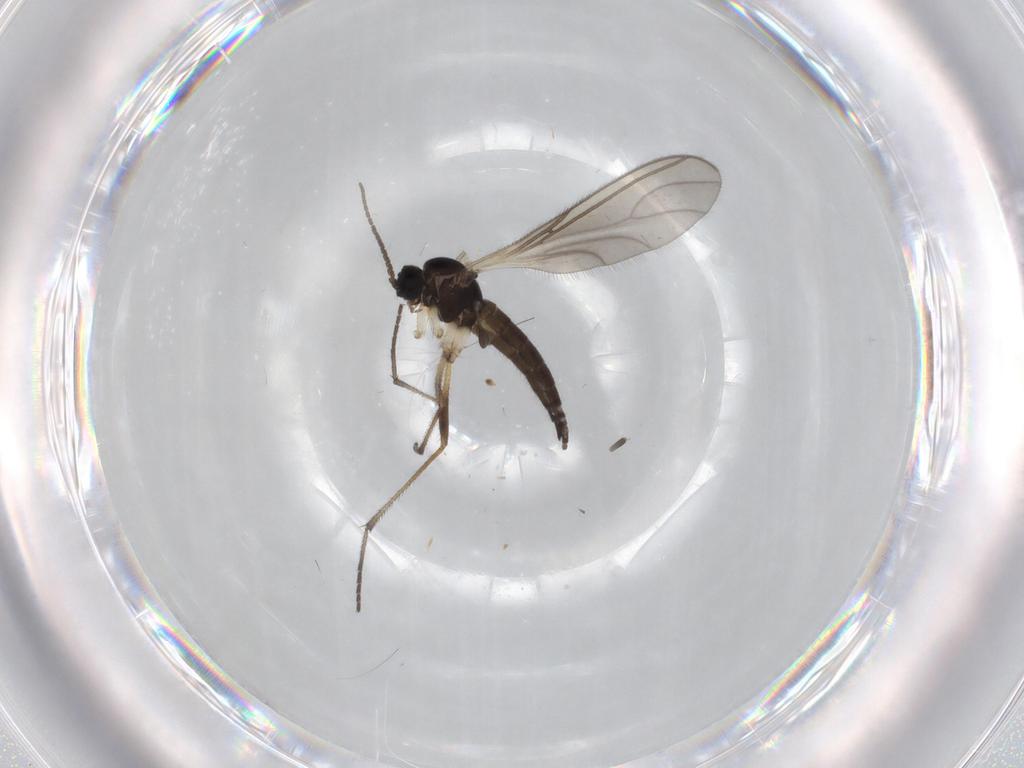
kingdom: Animalia
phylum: Arthropoda
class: Insecta
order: Diptera
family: Sciaridae
